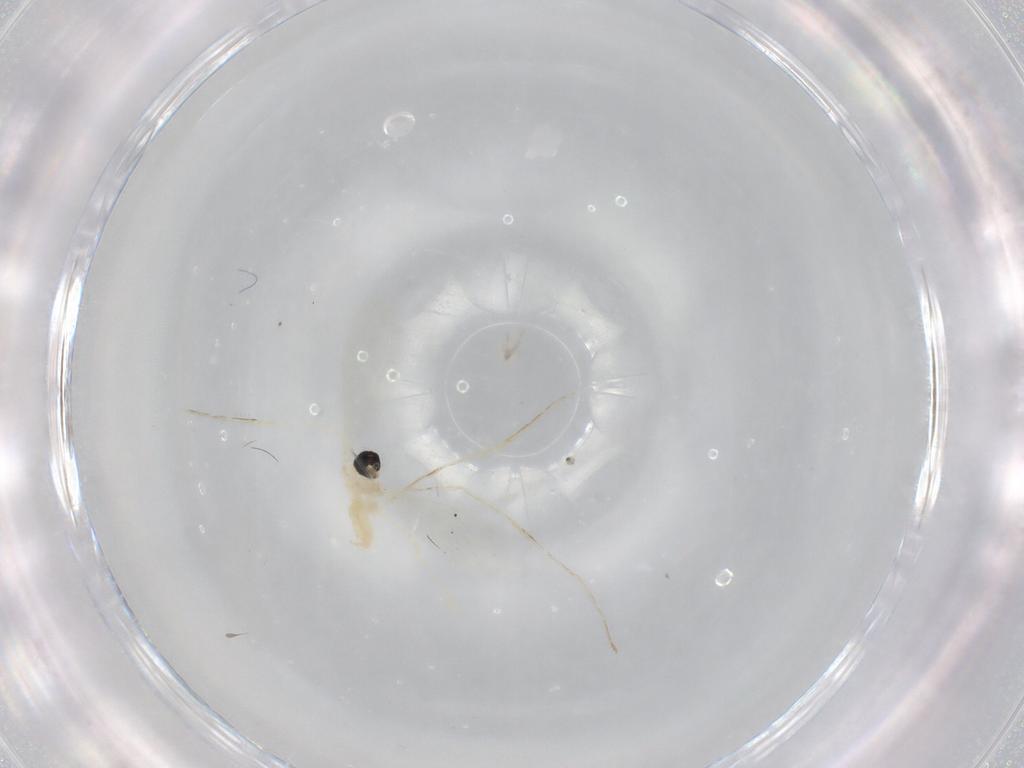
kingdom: Animalia
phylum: Arthropoda
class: Insecta
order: Diptera
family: Cecidomyiidae
